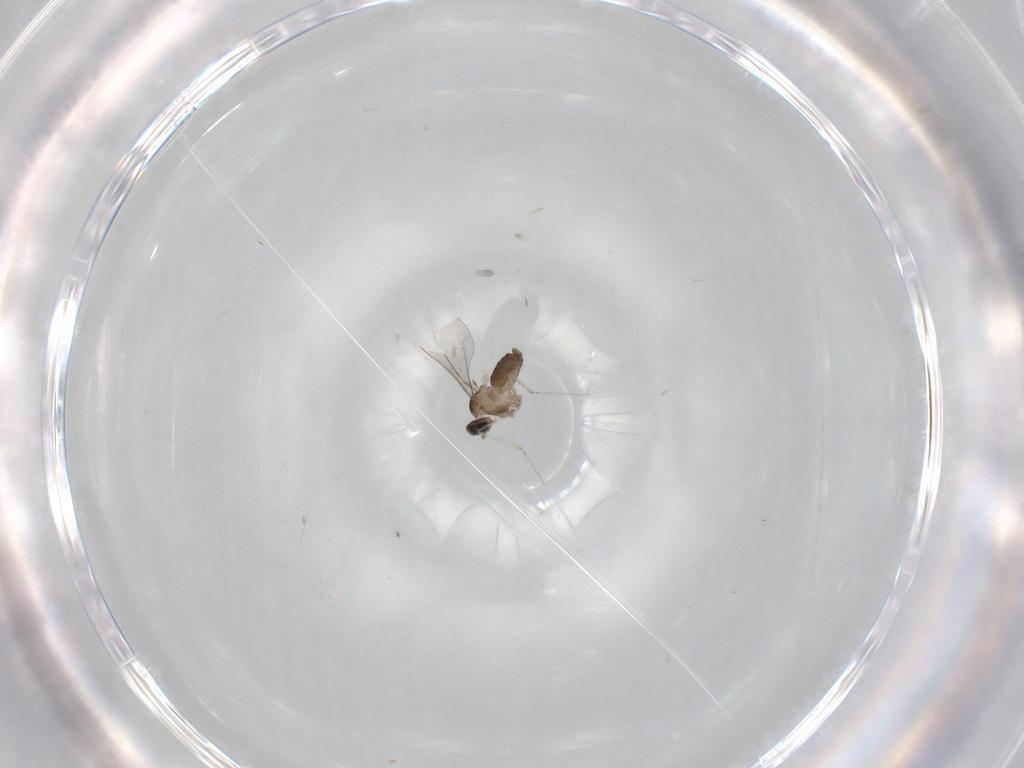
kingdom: Animalia
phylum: Arthropoda
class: Insecta
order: Diptera
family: Cecidomyiidae
